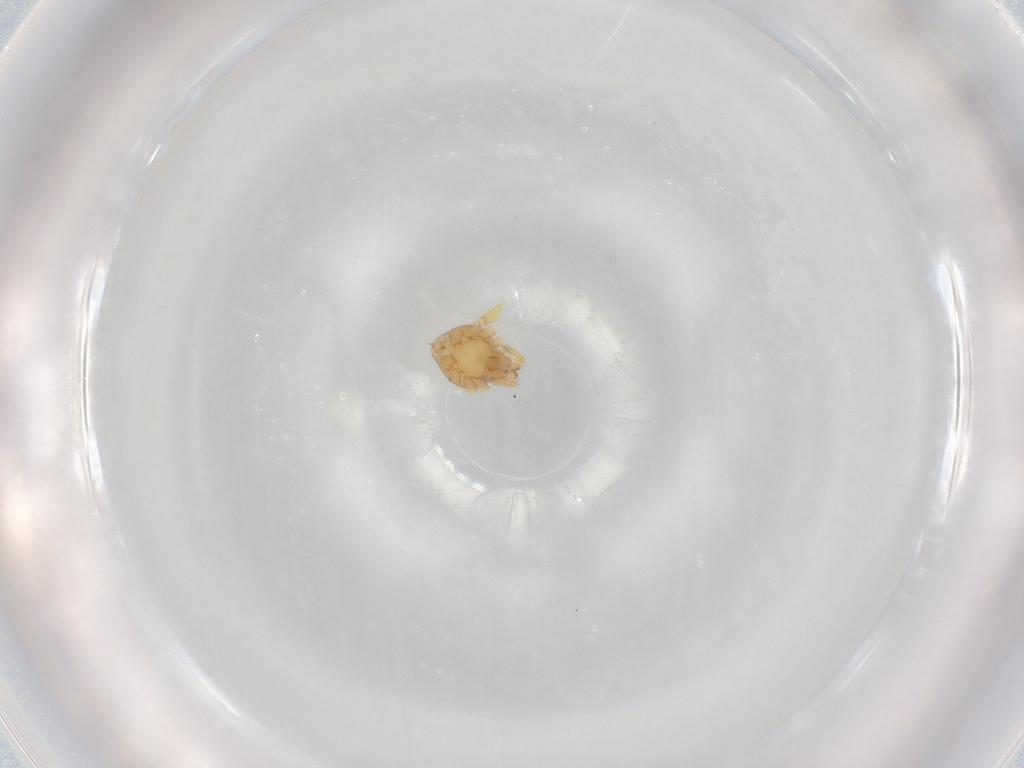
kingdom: Animalia
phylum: Arthropoda
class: Arachnida
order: Araneae
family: Oonopidae
